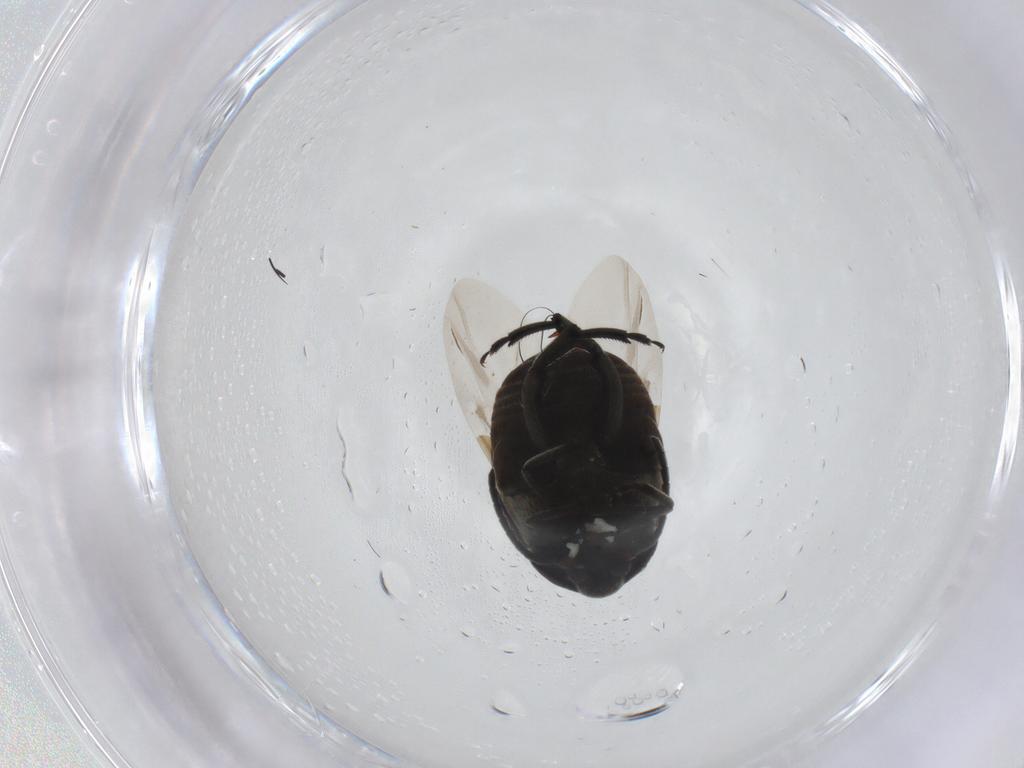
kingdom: Animalia
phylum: Arthropoda
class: Insecta
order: Coleoptera
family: Chrysomelidae
